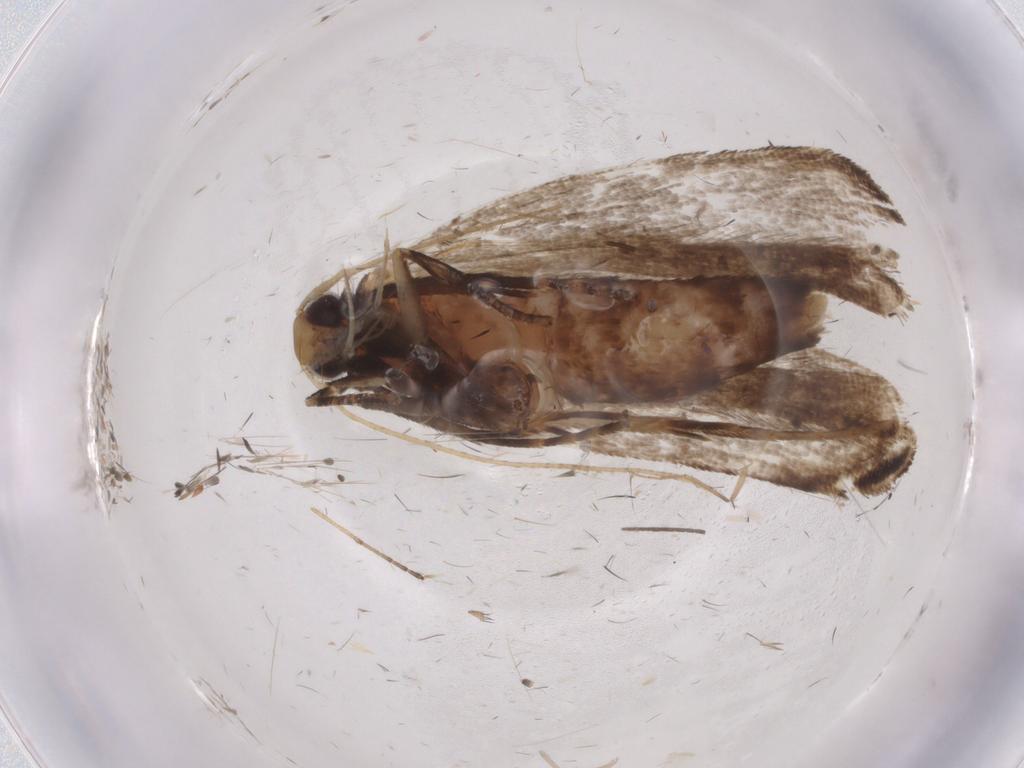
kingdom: Animalia
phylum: Arthropoda
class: Insecta
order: Lepidoptera
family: Gelechiidae
